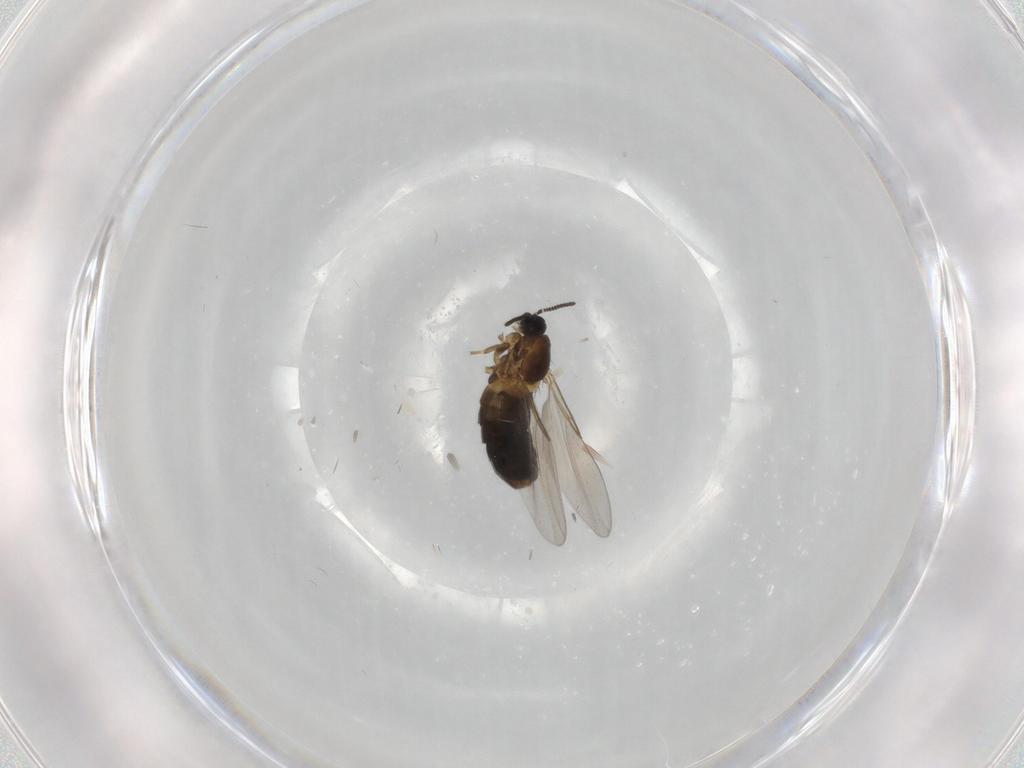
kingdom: Animalia
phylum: Arthropoda
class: Insecta
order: Diptera
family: Scatopsidae
